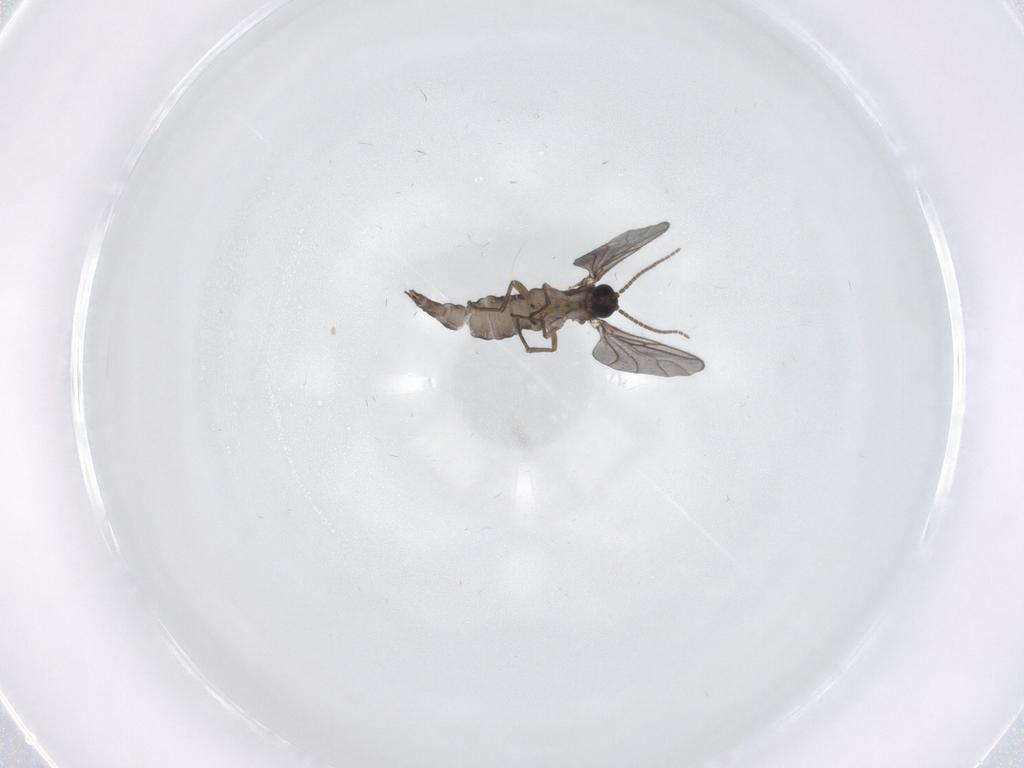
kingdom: Animalia
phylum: Arthropoda
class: Insecta
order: Diptera
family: Sciaridae
